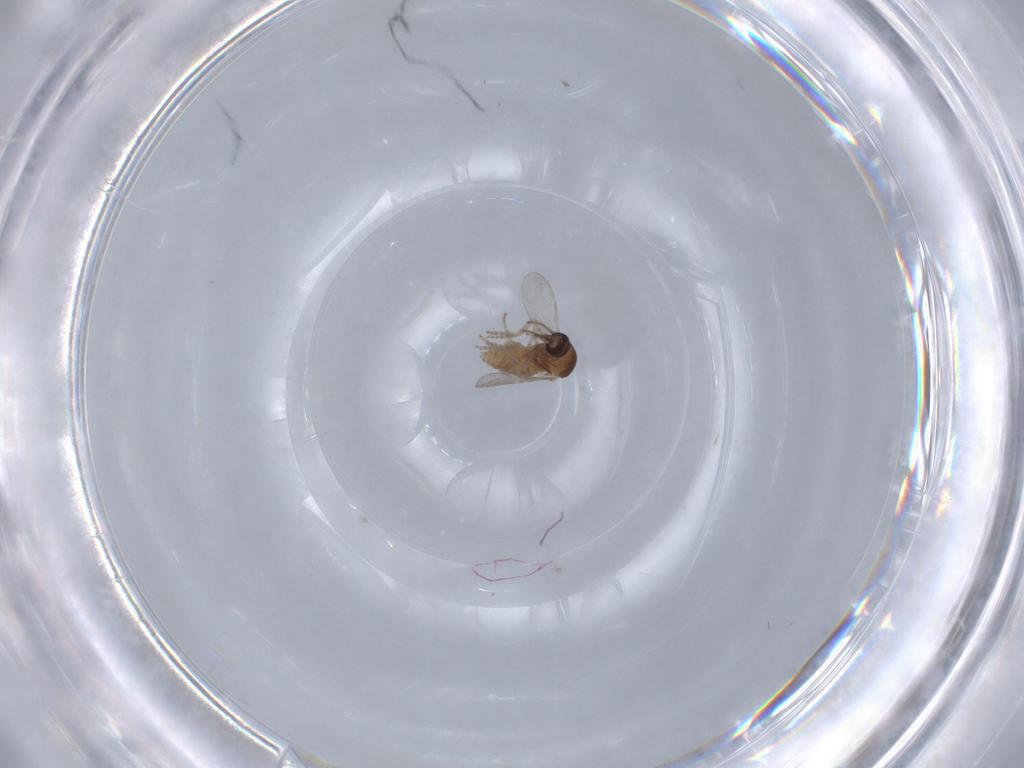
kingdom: Animalia
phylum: Arthropoda
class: Insecta
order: Diptera
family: Ceratopogonidae
